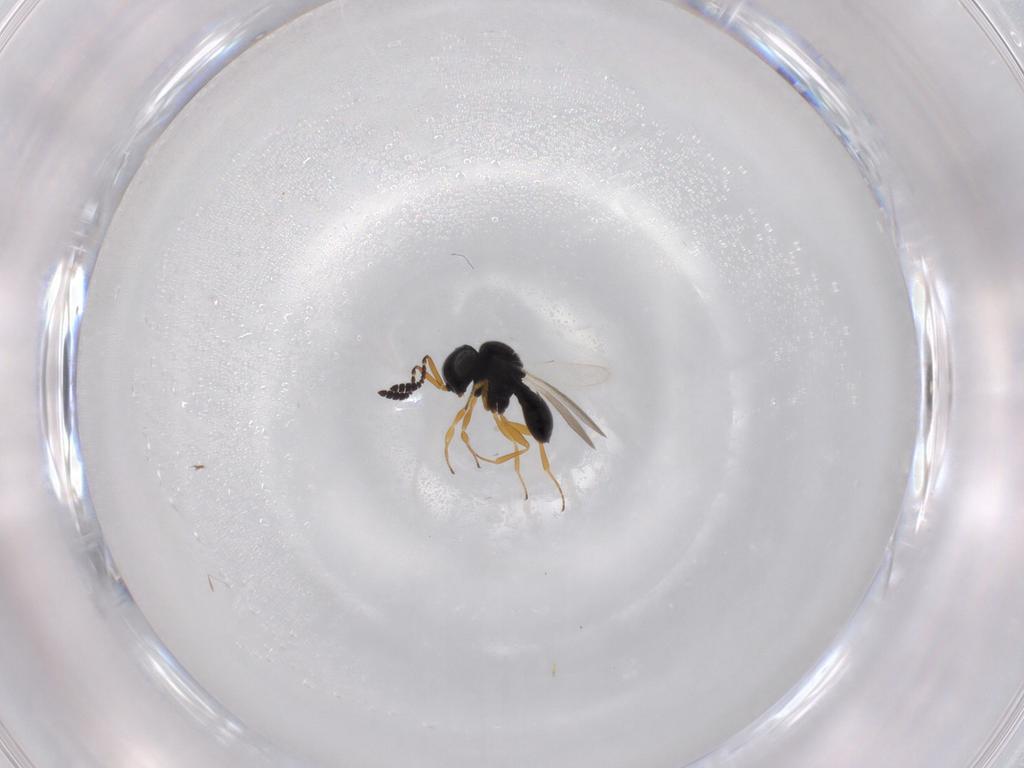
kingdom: Animalia
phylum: Arthropoda
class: Insecta
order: Hymenoptera
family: Scelionidae
